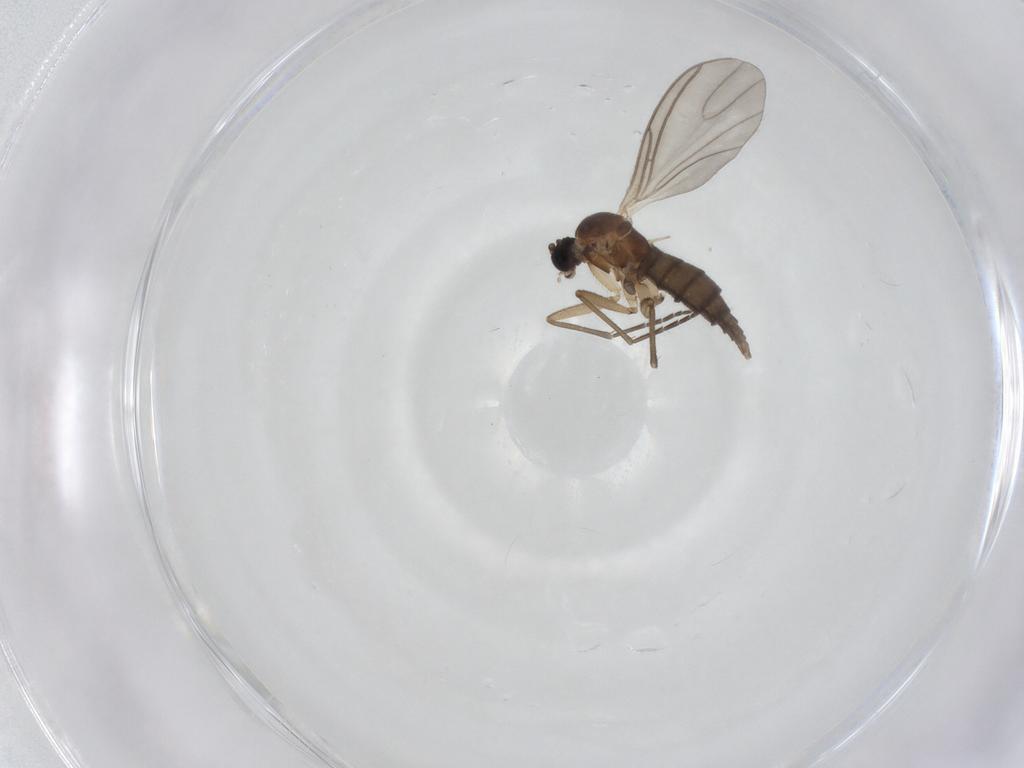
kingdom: Animalia
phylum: Arthropoda
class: Insecta
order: Diptera
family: Sciaridae
